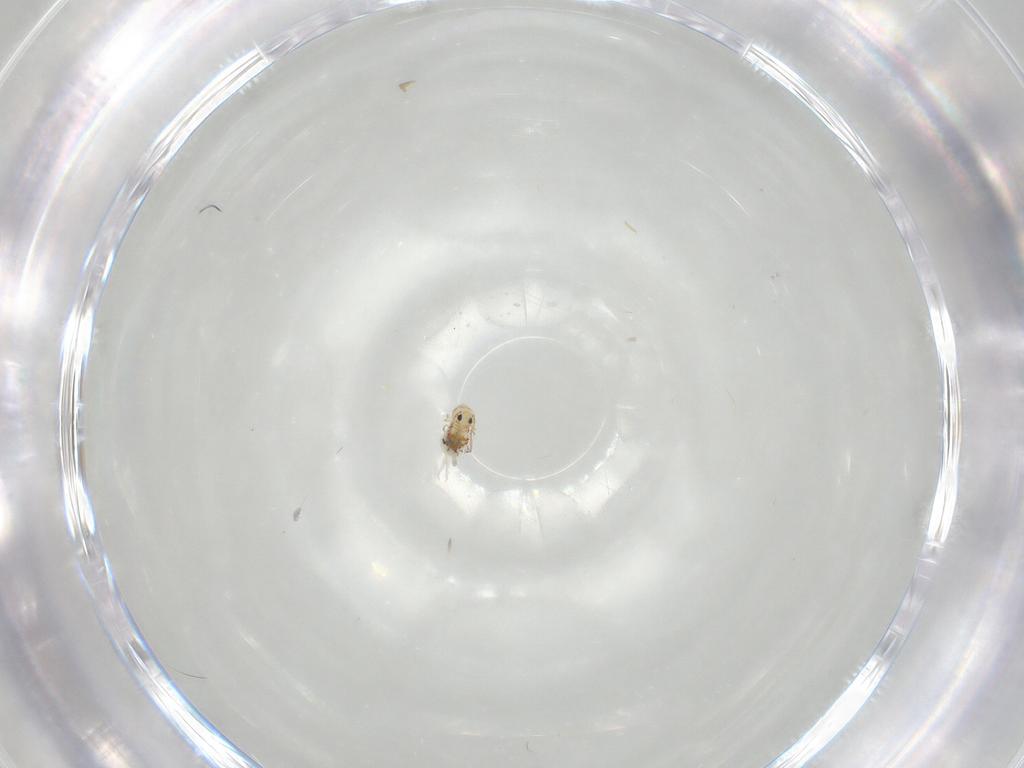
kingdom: Animalia
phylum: Arthropoda
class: Collembola
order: Symphypleona
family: Bourletiellidae
